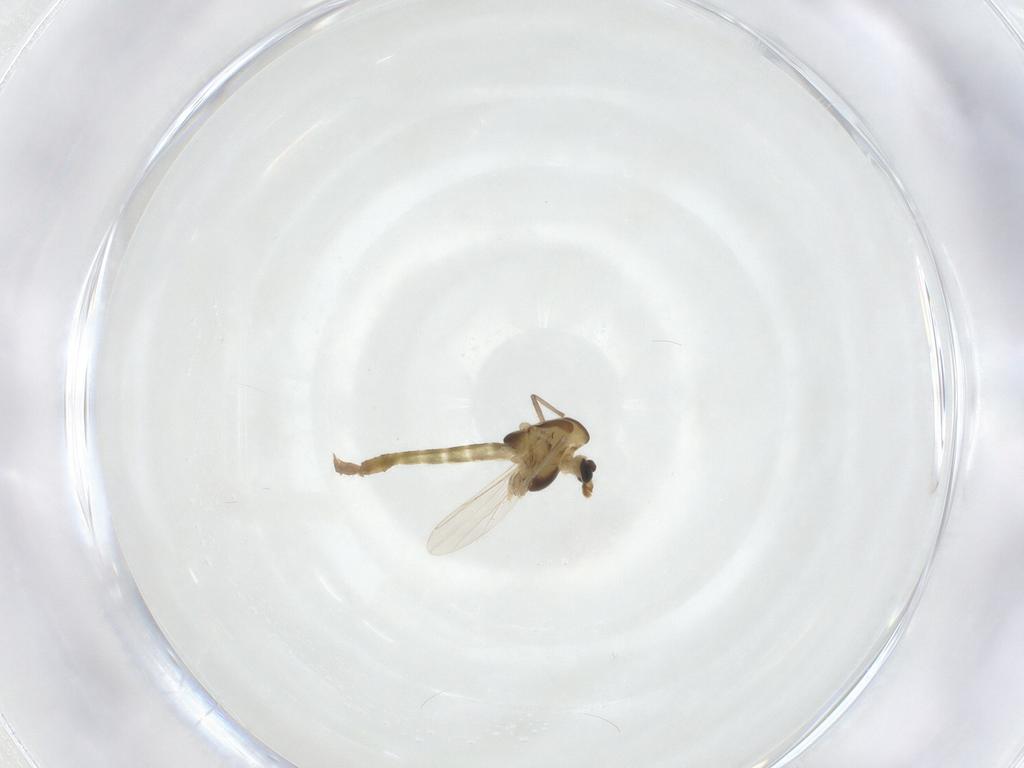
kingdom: Animalia
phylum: Arthropoda
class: Insecta
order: Diptera
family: Chironomidae
